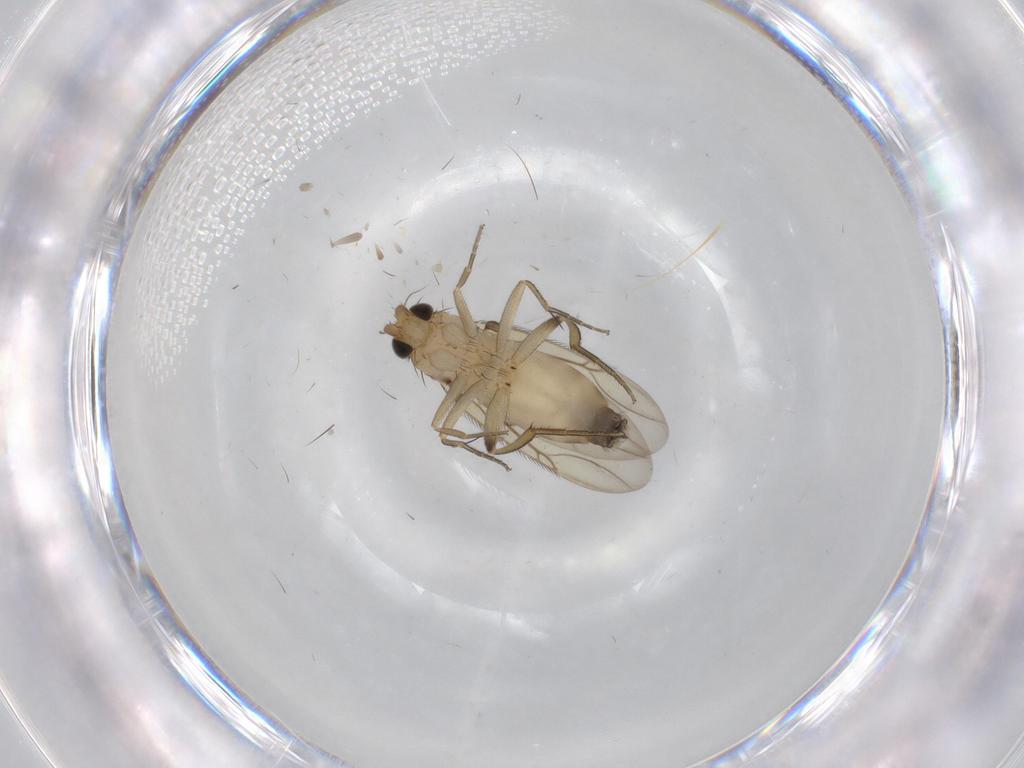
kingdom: Animalia
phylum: Arthropoda
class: Insecta
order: Diptera
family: Phoridae
